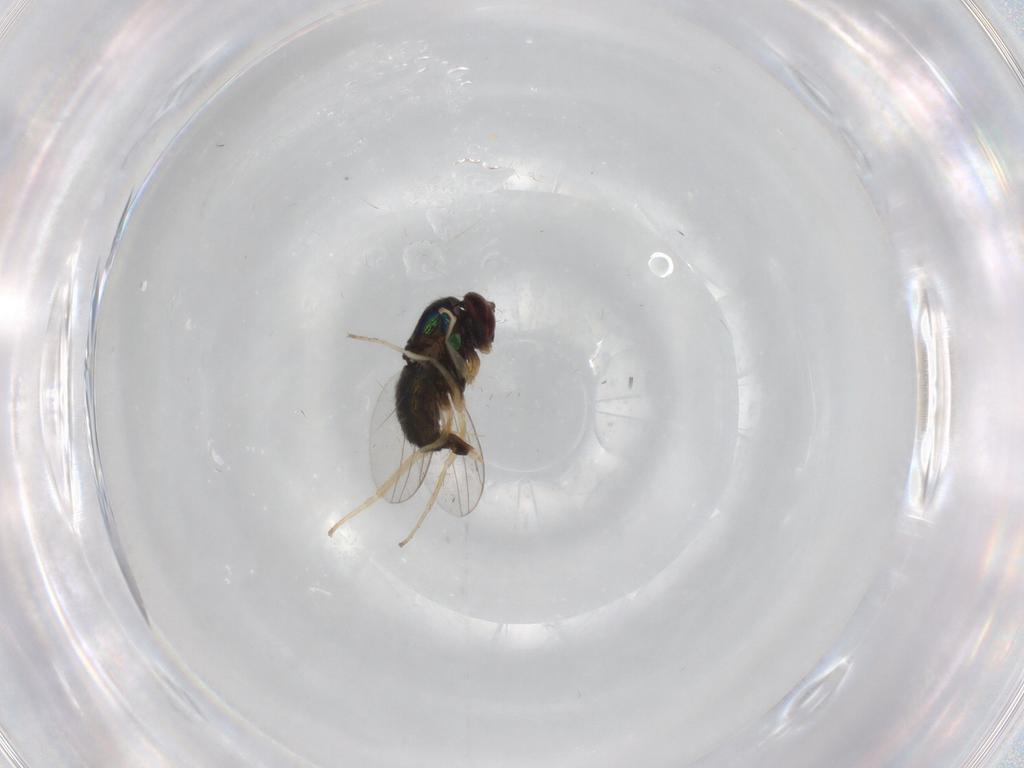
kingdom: Animalia
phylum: Arthropoda
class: Insecta
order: Diptera
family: Dolichopodidae
